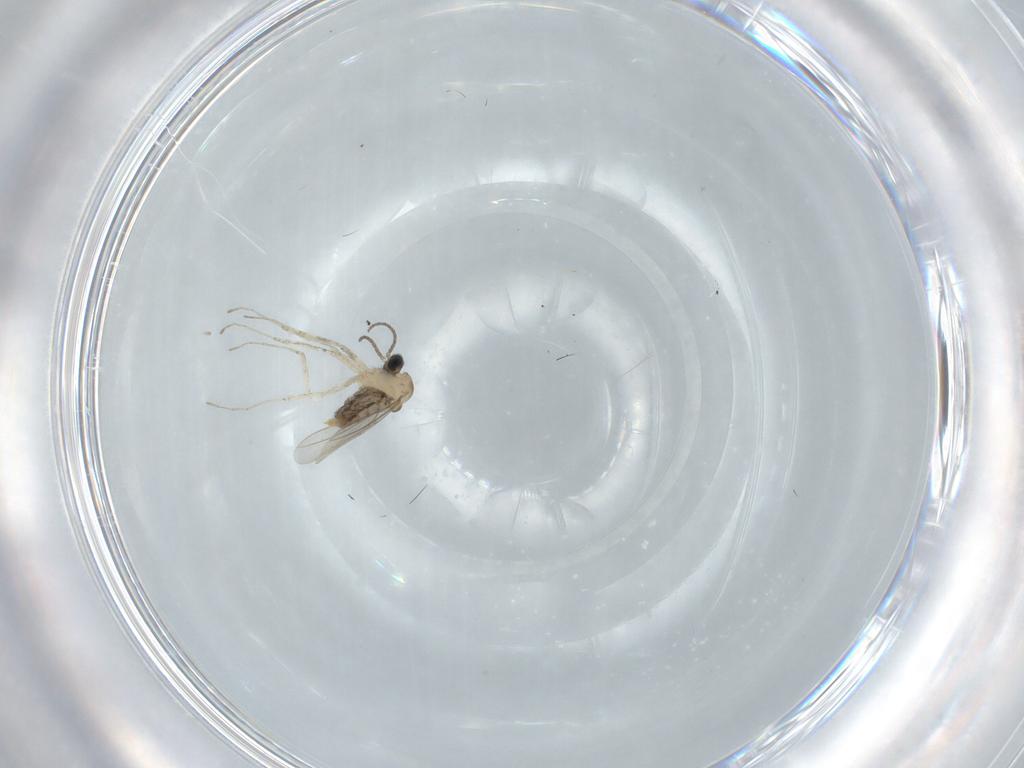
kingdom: Animalia
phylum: Arthropoda
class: Insecta
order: Diptera
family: Cecidomyiidae
